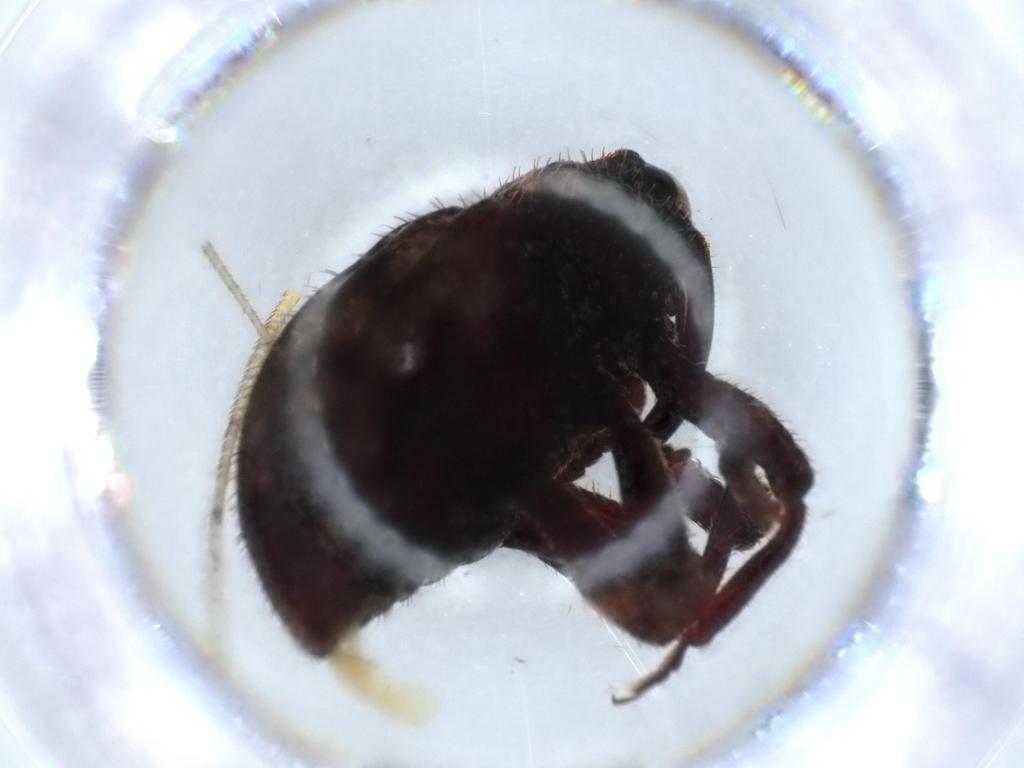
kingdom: Animalia
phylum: Arthropoda
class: Insecta
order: Coleoptera
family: Curculionidae
